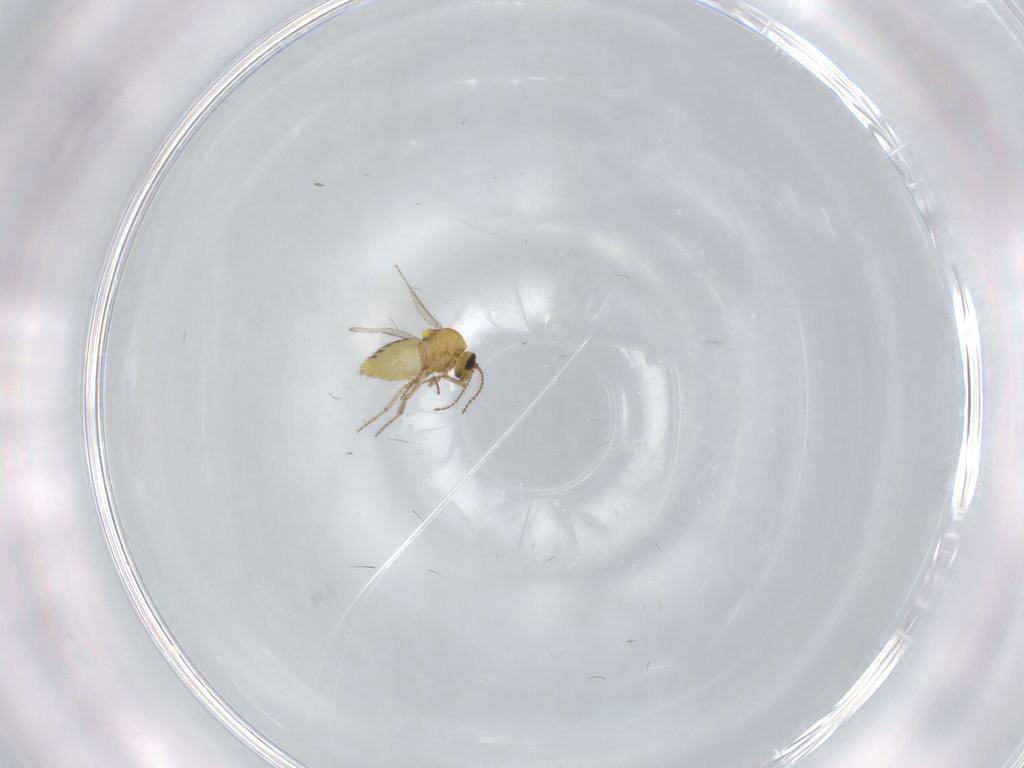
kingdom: Animalia
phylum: Arthropoda
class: Insecta
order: Diptera
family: Ceratopogonidae
